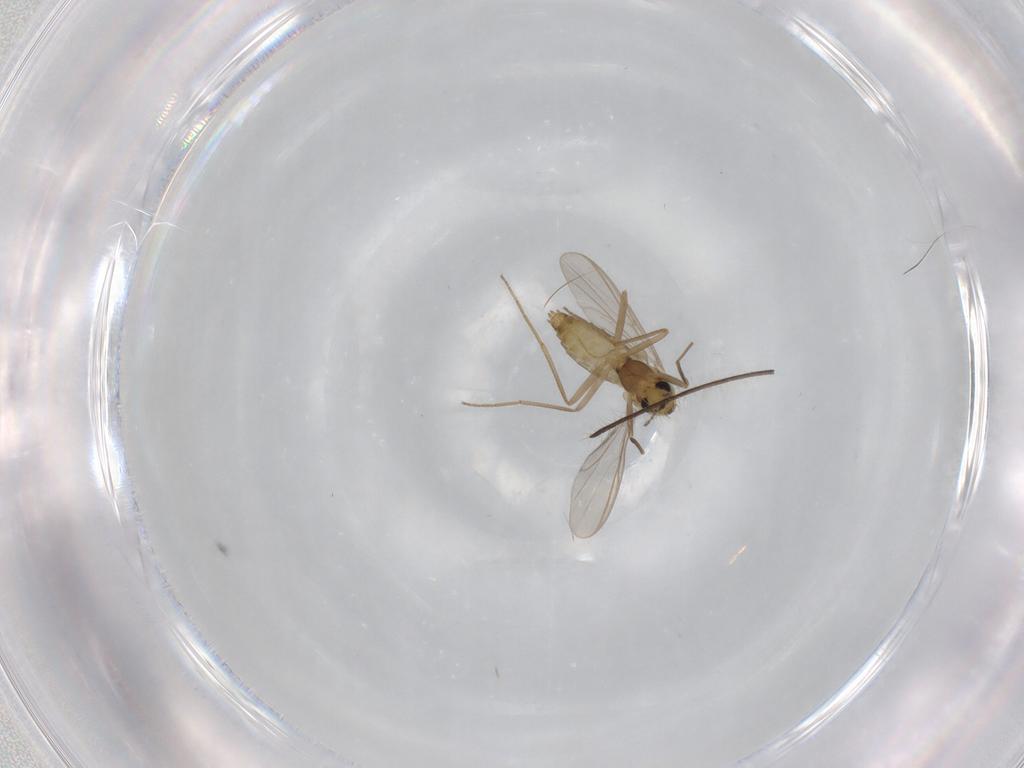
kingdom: Animalia
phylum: Arthropoda
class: Insecta
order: Diptera
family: Chironomidae
